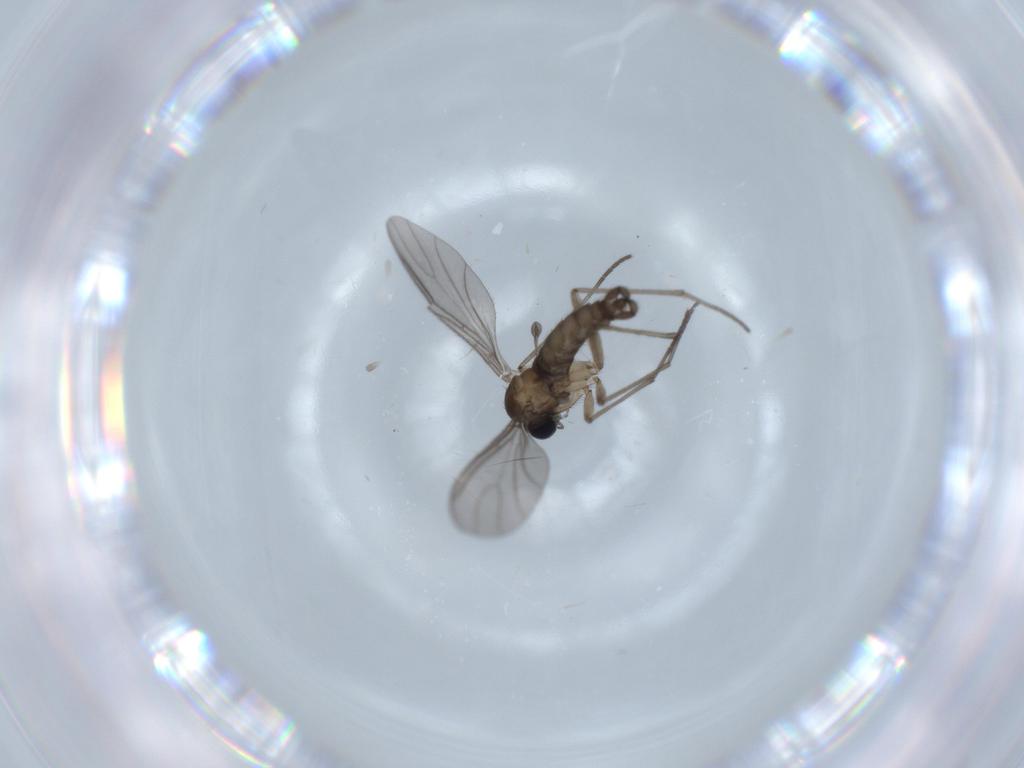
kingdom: Animalia
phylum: Arthropoda
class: Insecta
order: Diptera
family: Sciaridae
